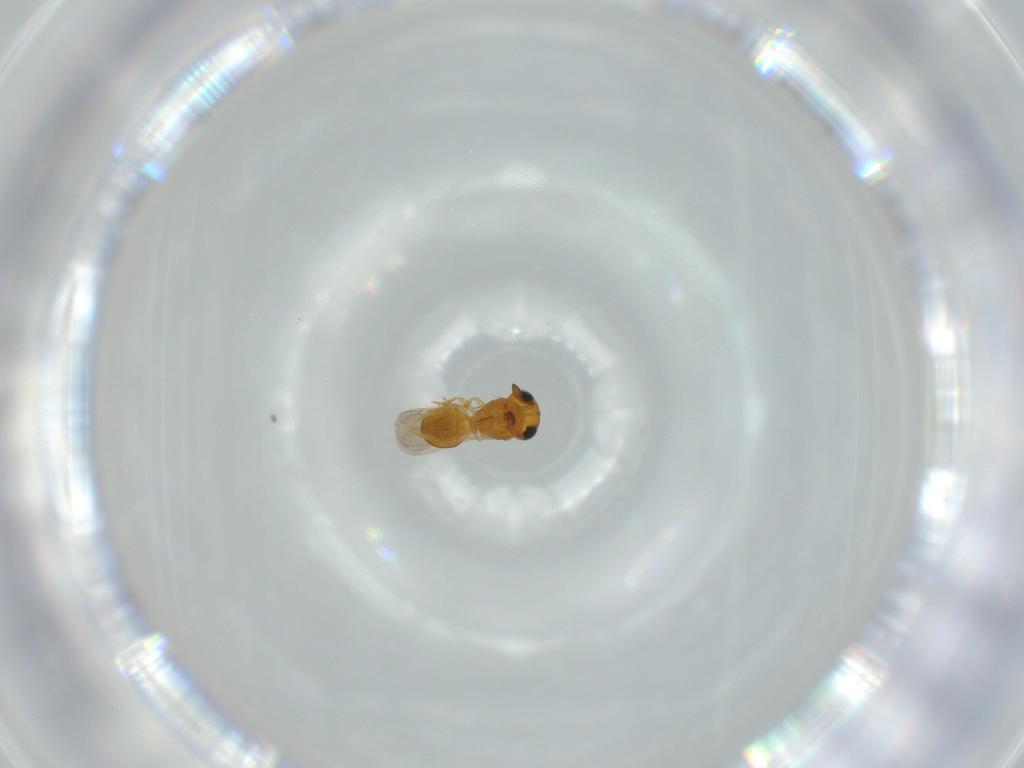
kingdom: Animalia
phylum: Arthropoda
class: Insecta
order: Hymenoptera
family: Scelionidae
